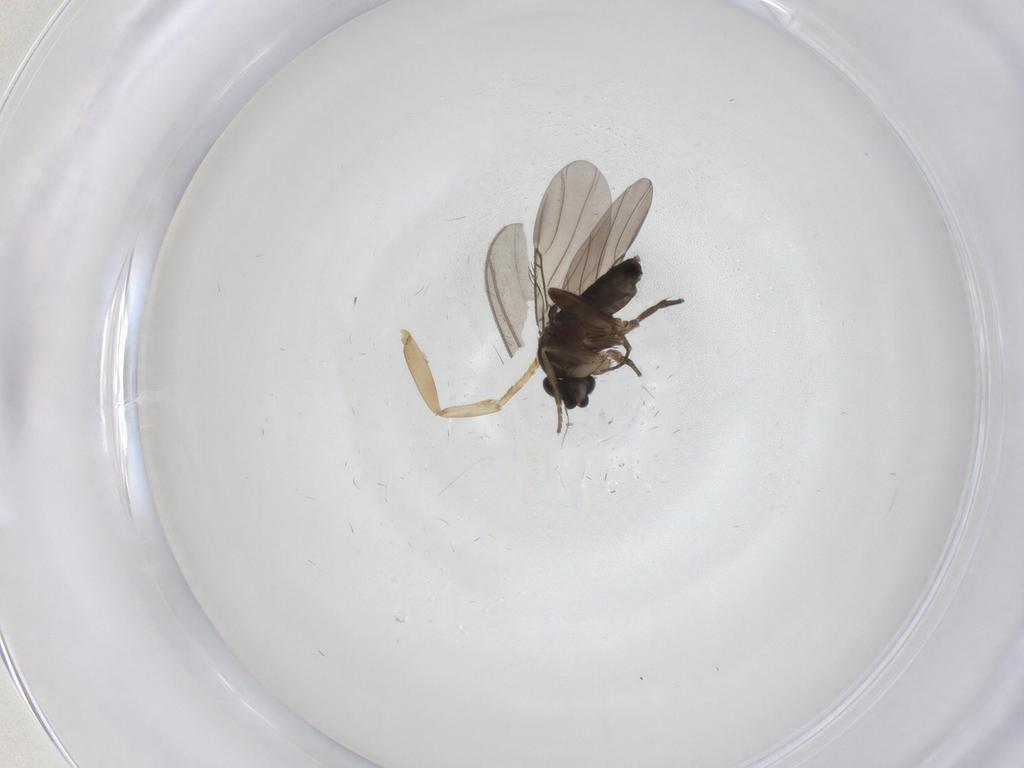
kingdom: Animalia
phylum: Arthropoda
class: Insecta
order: Diptera
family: Phoridae
